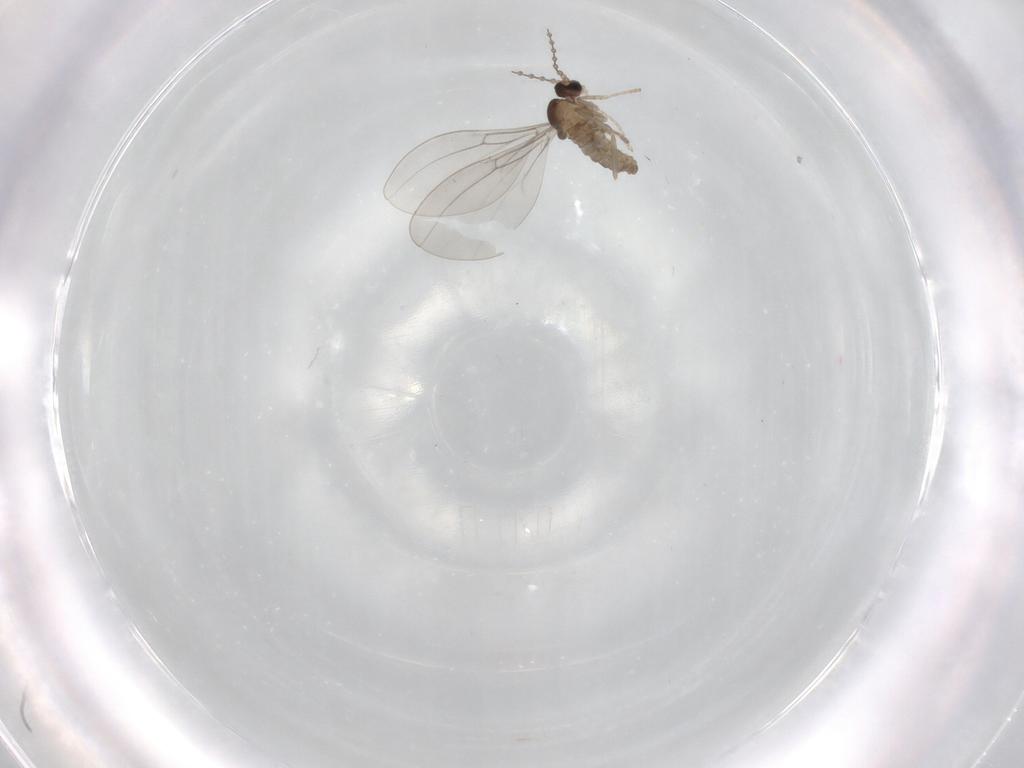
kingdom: Animalia
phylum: Arthropoda
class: Insecta
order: Diptera
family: Cecidomyiidae
